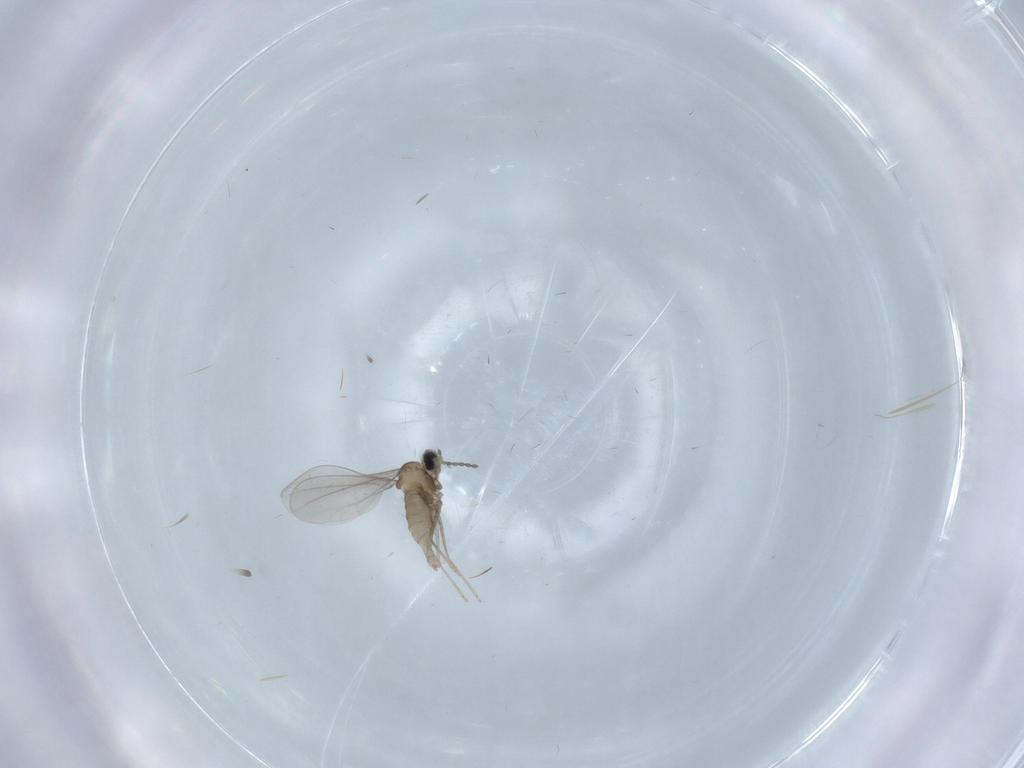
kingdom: Animalia
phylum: Arthropoda
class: Insecta
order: Diptera
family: Cecidomyiidae
